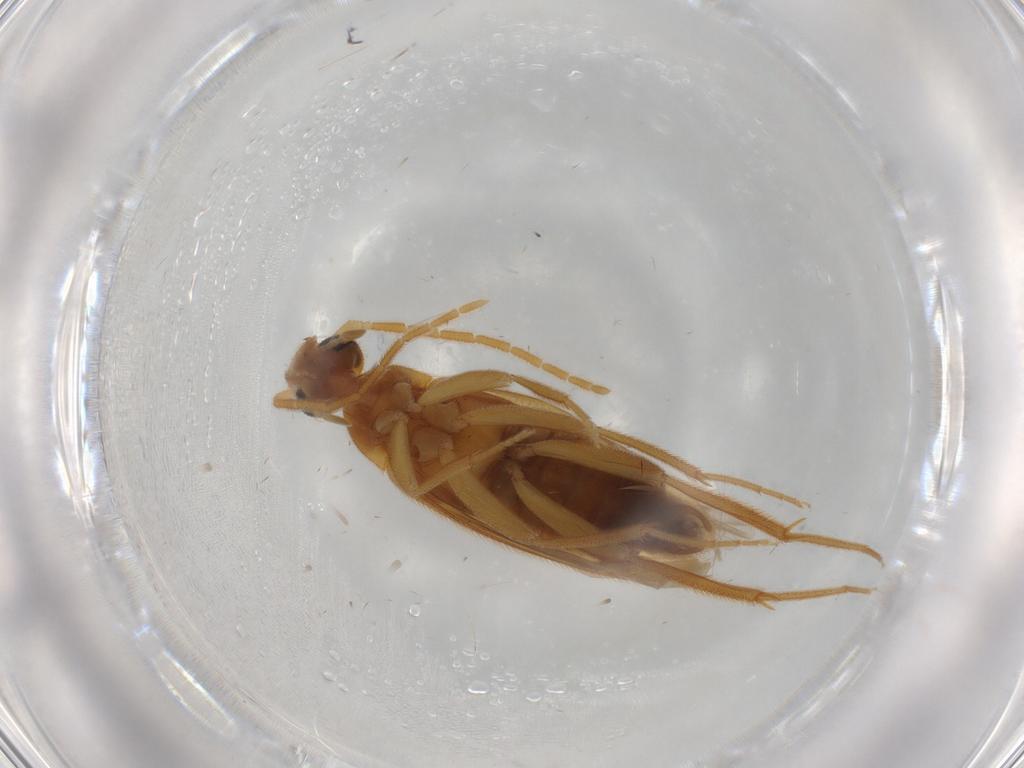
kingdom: Animalia
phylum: Arthropoda
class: Insecta
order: Coleoptera
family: Scraptiidae
